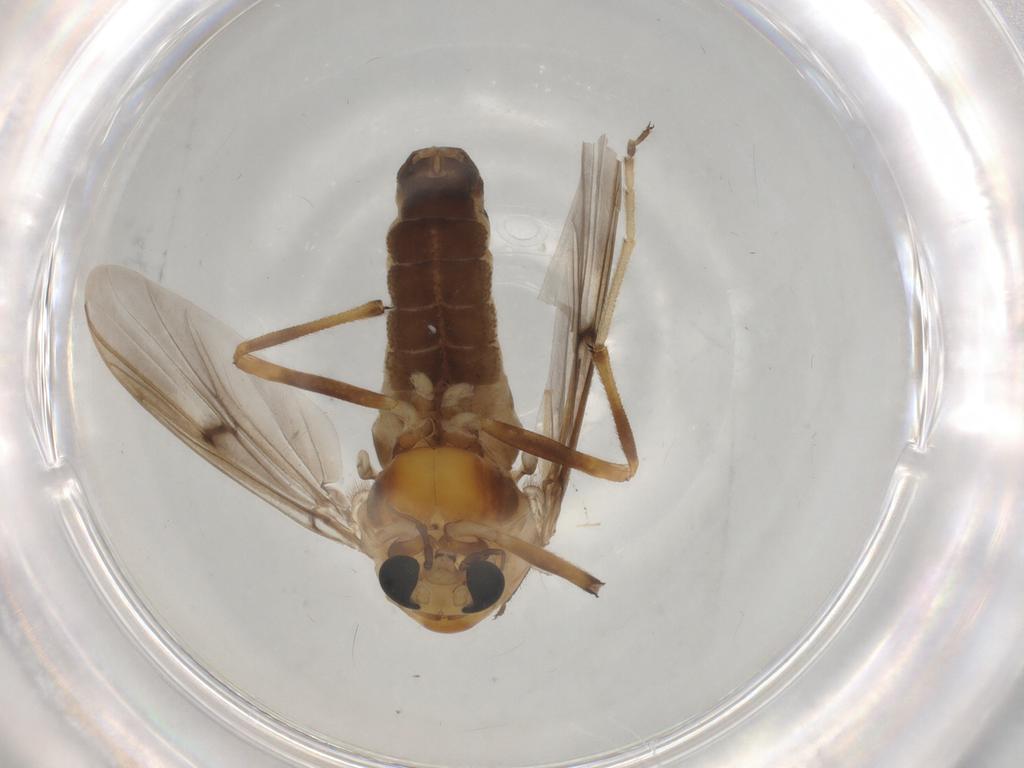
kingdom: Animalia
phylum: Arthropoda
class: Insecta
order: Diptera
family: Psychodidae
